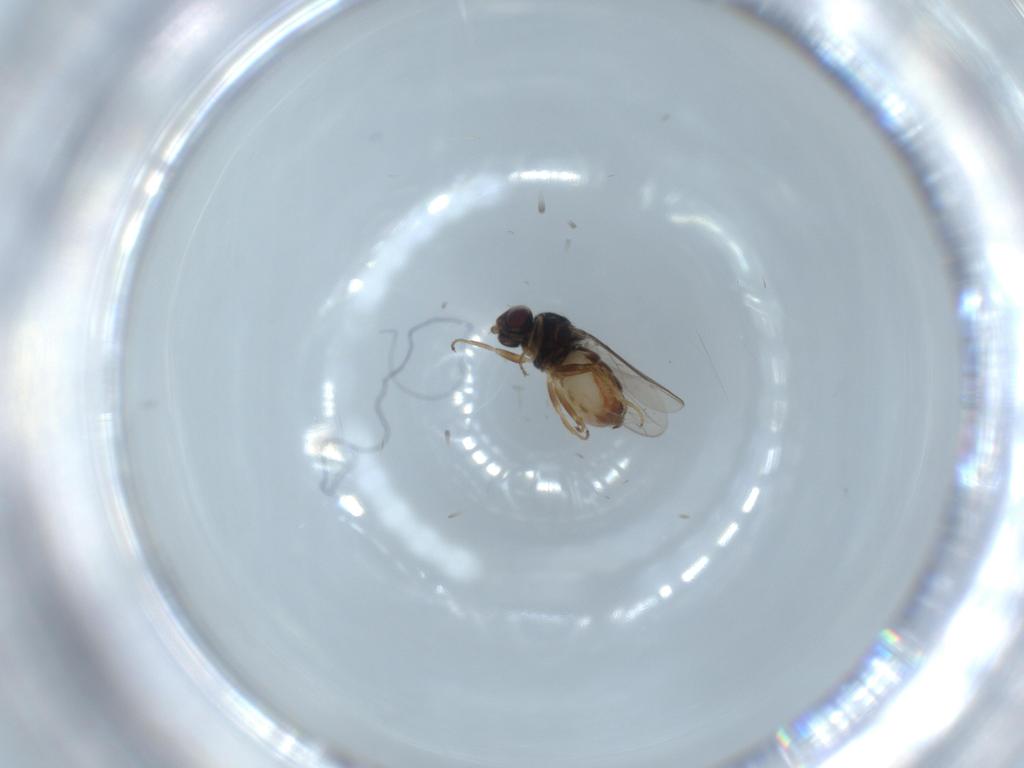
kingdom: Animalia
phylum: Arthropoda
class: Insecta
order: Diptera
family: Chloropidae
